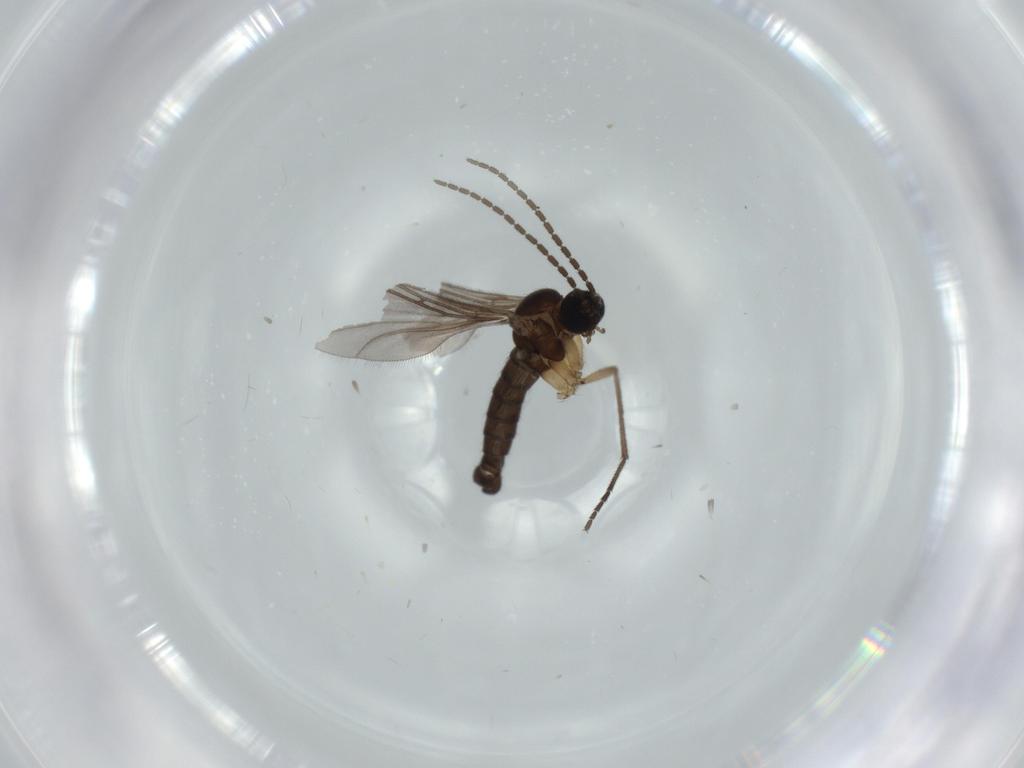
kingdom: Animalia
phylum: Arthropoda
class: Insecta
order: Diptera
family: Sciaridae
